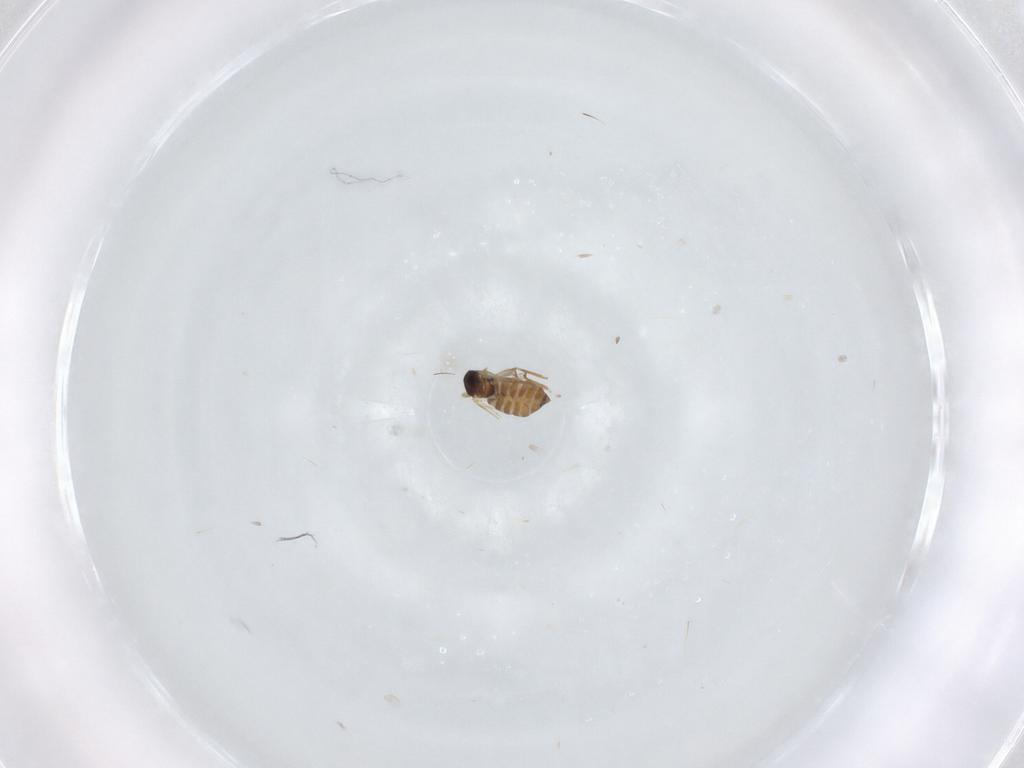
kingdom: Animalia
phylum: Arthropoda
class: Insecta
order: Diptera
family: Cecidomyiidae
